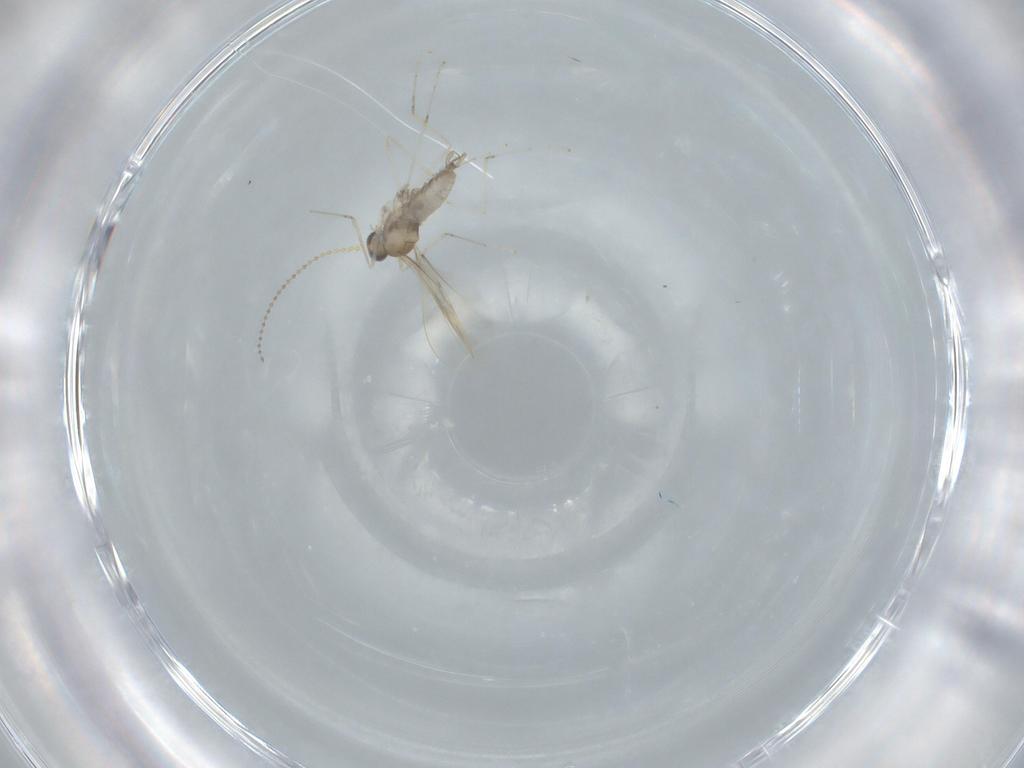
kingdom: Animalia
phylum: Arthropoda
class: Insecta
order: Diptera
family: Cecidomyiidae
